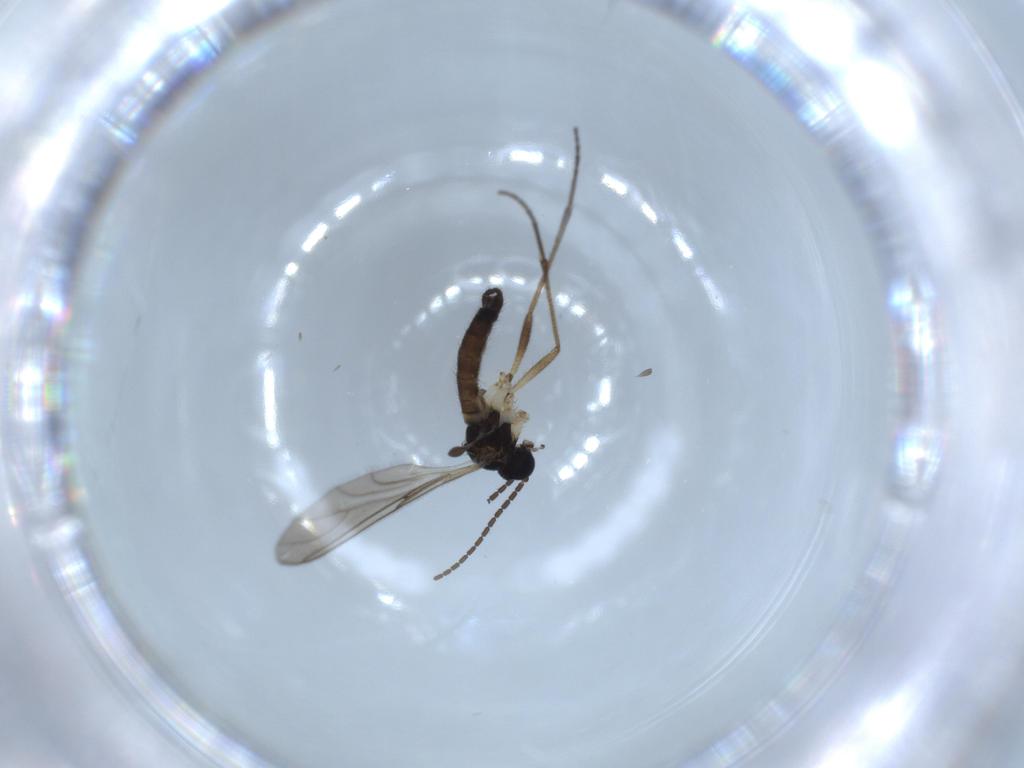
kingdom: Animalia
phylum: Arthropoda
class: Insecta
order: Diptera
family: Sciaridae
